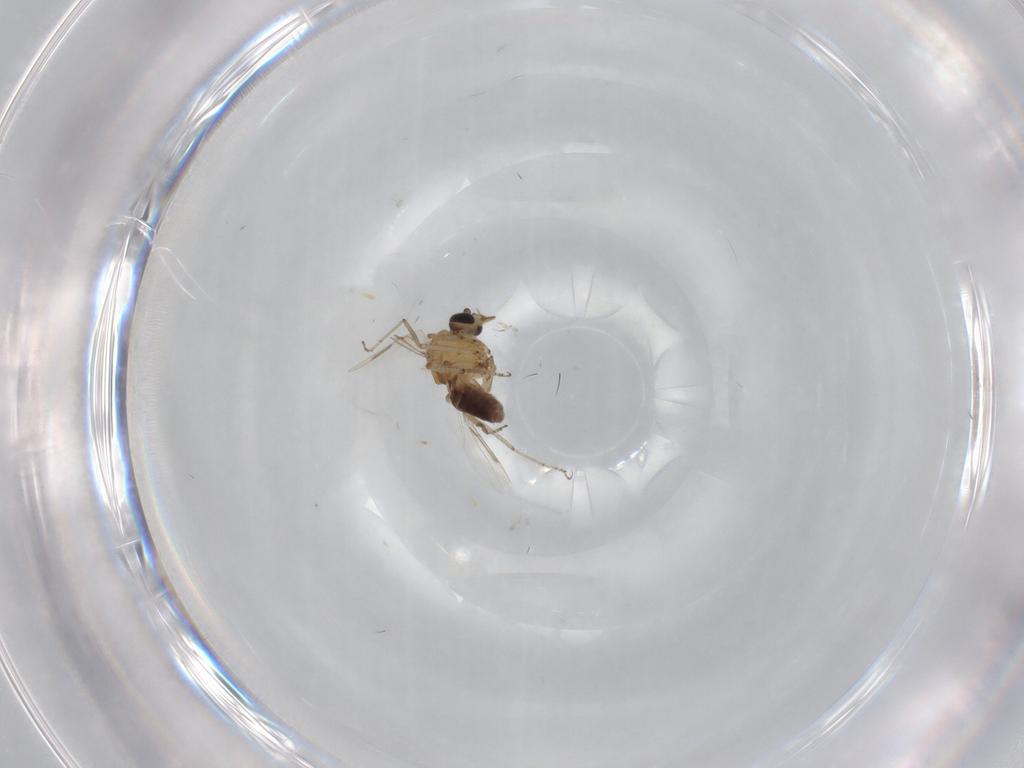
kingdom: Animalia
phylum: Arthropoda
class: Insecta
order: Diptera
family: Ceratopogonidae
